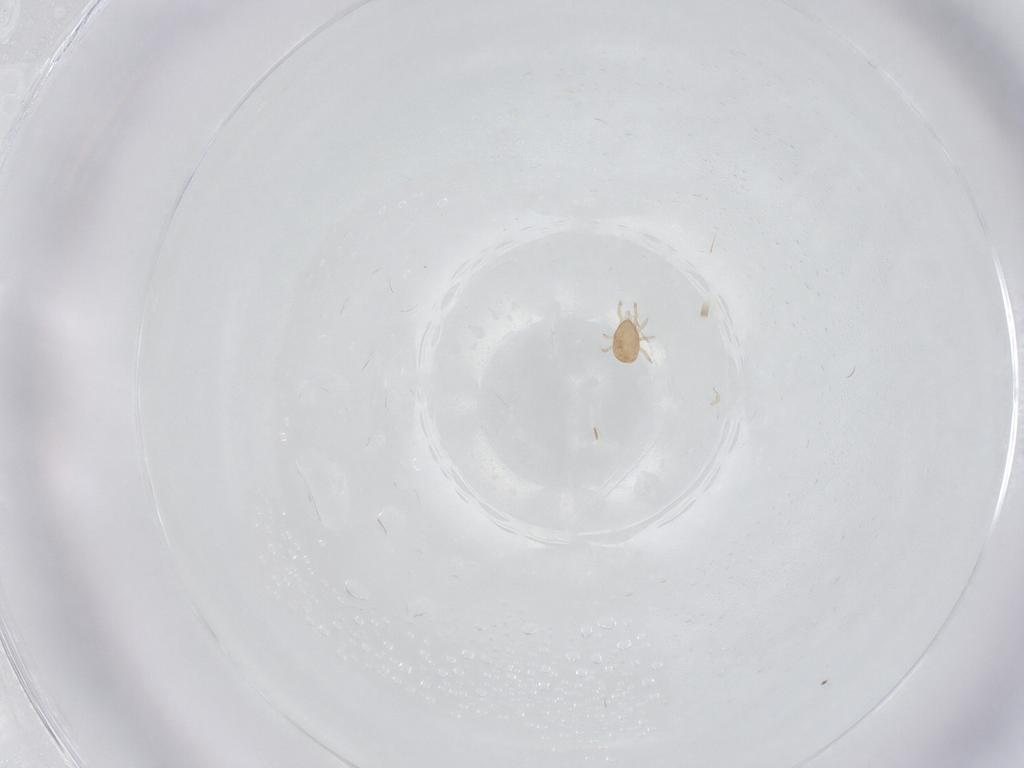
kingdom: Animalia
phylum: Arthropoda
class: Arachnida
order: Mesostigmata
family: Ascidae
